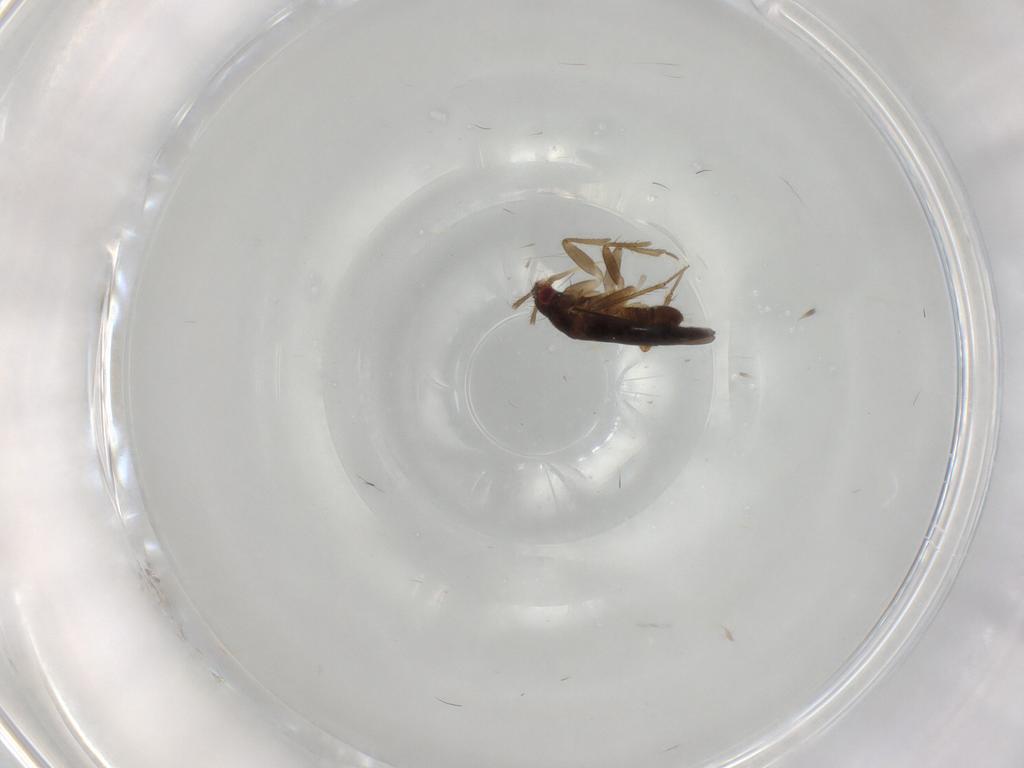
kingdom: Animalia
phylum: Arthropoda
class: Insecta
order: Hemiptera
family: Ceratocombidae
